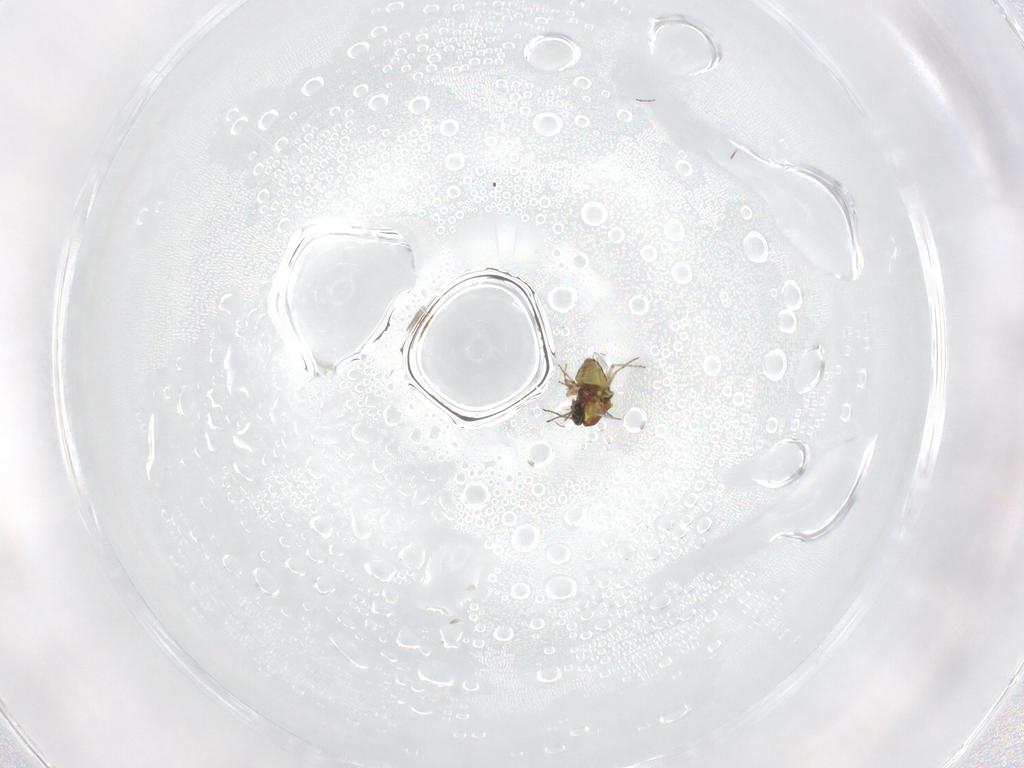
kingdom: Animalia
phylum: Arthropoda
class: Insecta
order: Diptera
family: Ceratopogonidae
